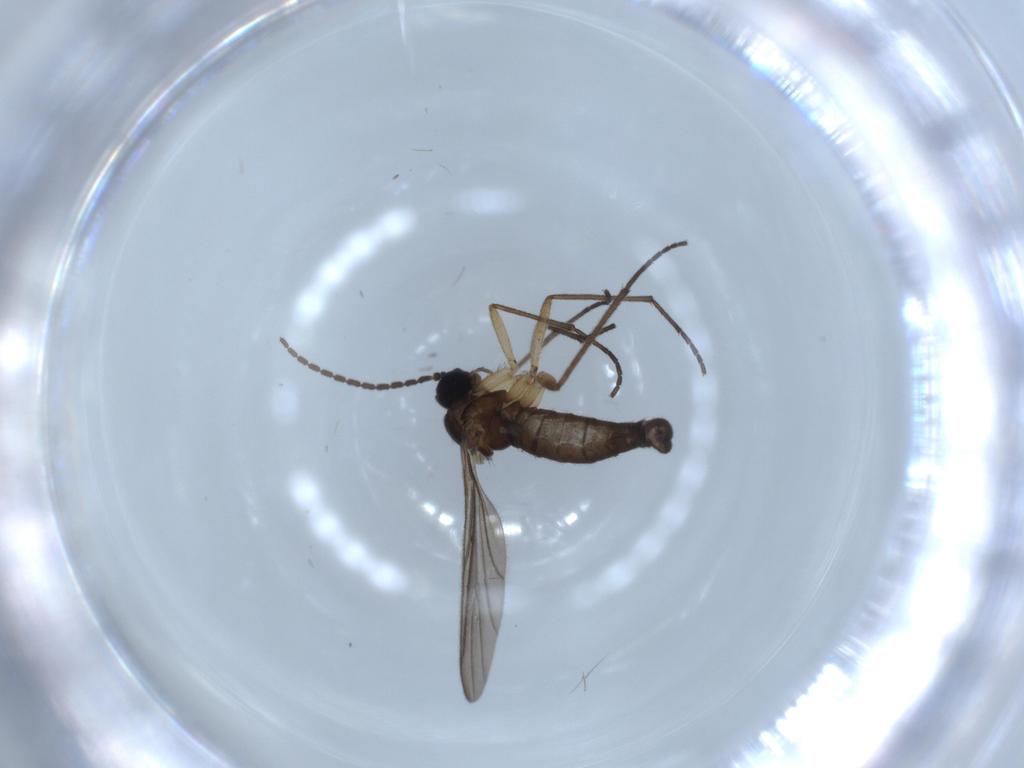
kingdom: Animalia
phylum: Arthropoda
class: Insecta
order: Diptera
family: Sciaridae
